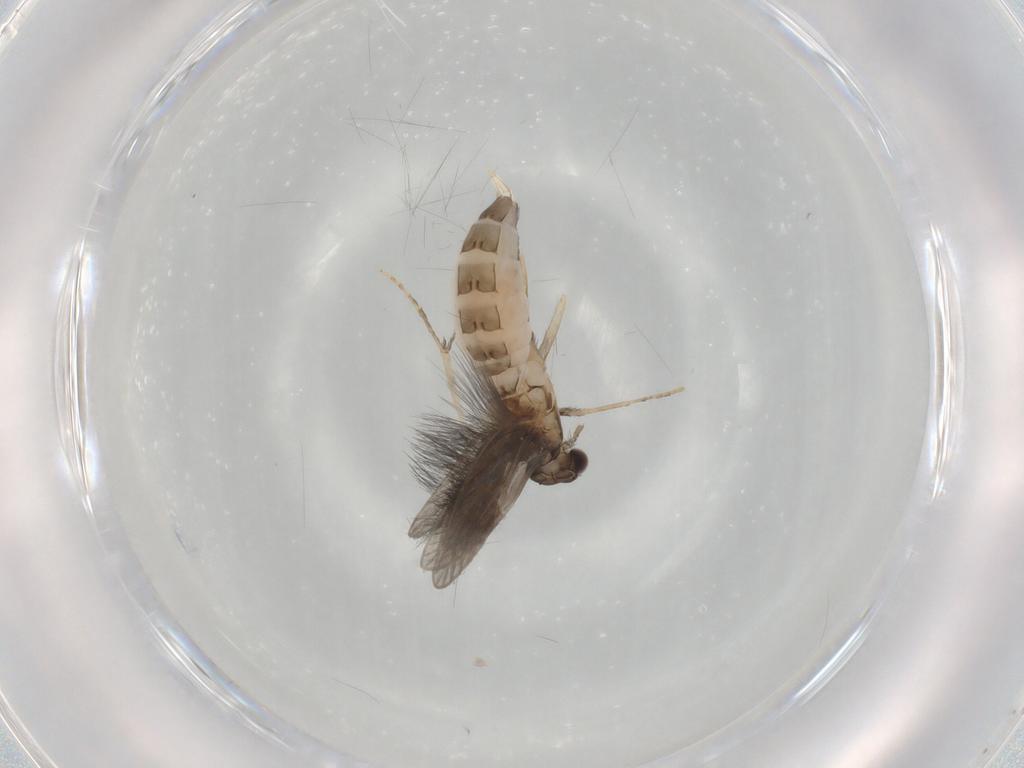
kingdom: Animalia
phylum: Arthropoda
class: Insecta
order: Trichoptera
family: Hydroptilidae
